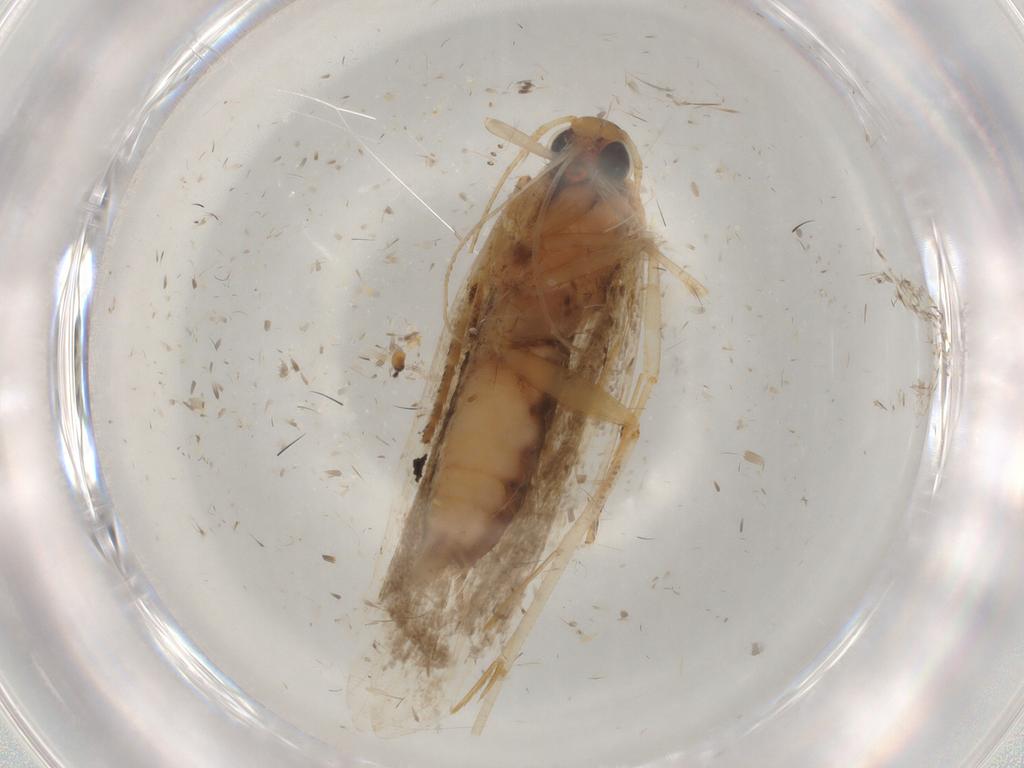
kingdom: Animalia
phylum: Arthropoda
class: Insecta
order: Lepidoptera
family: Gelechiidae
